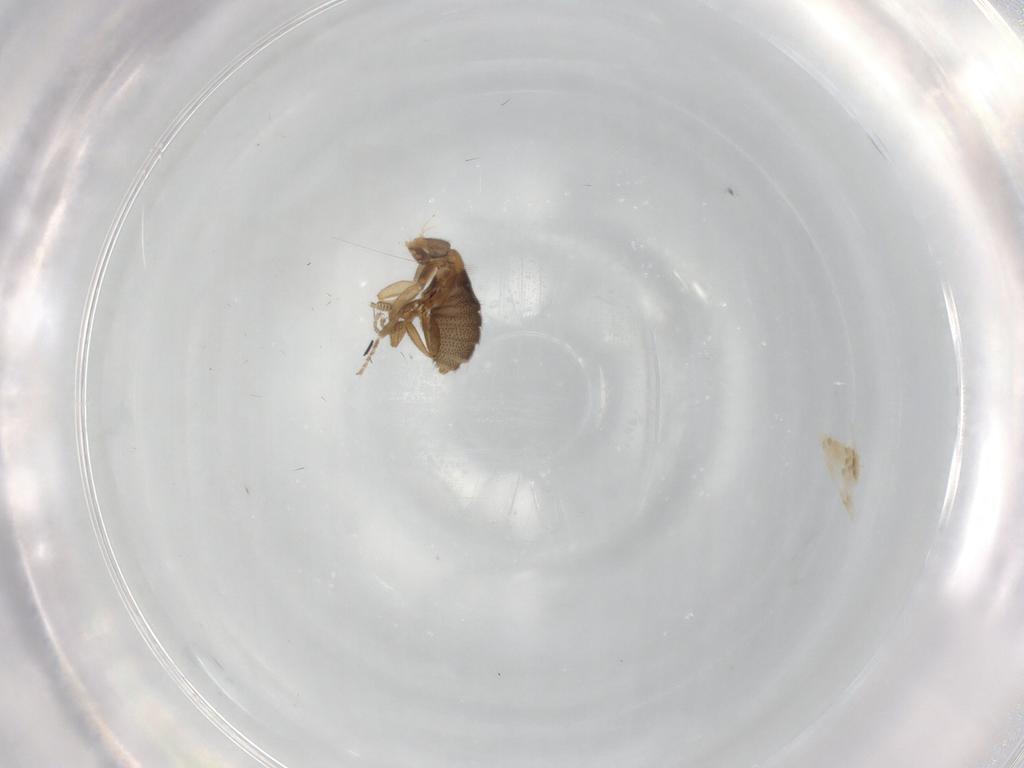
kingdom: Animalia
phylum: Arthropoda
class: Insecta
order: Diptera
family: Phoridae
